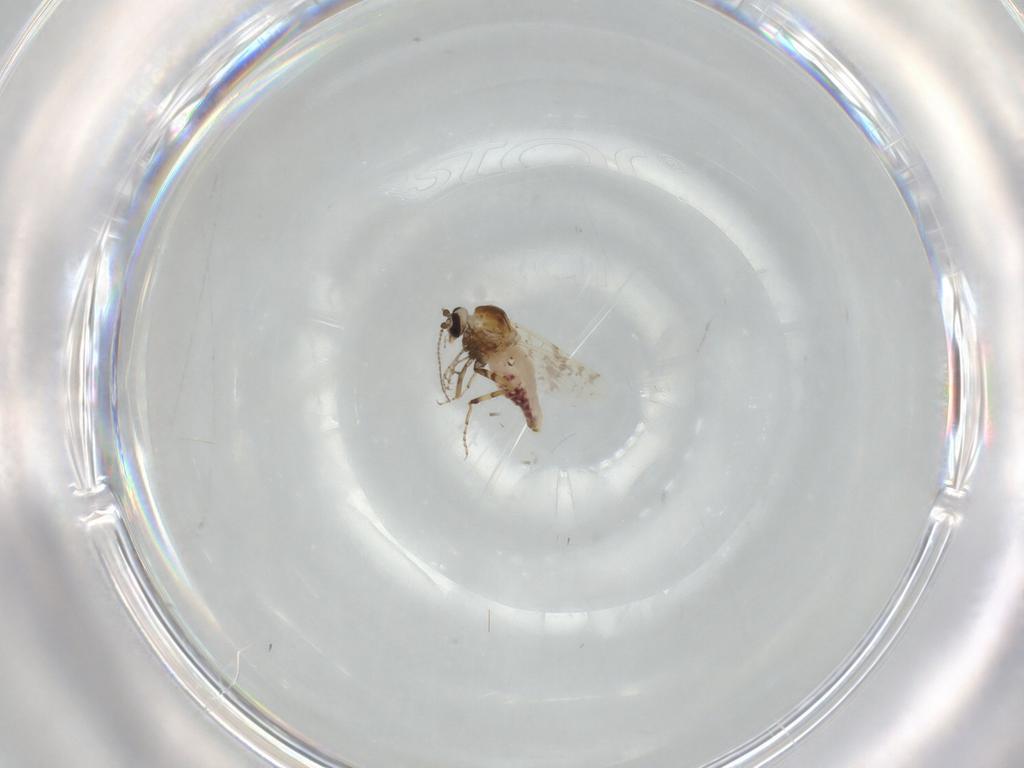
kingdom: Animalia
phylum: Arthropoda
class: Insecta
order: Diptera
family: Ceratopogonidae
